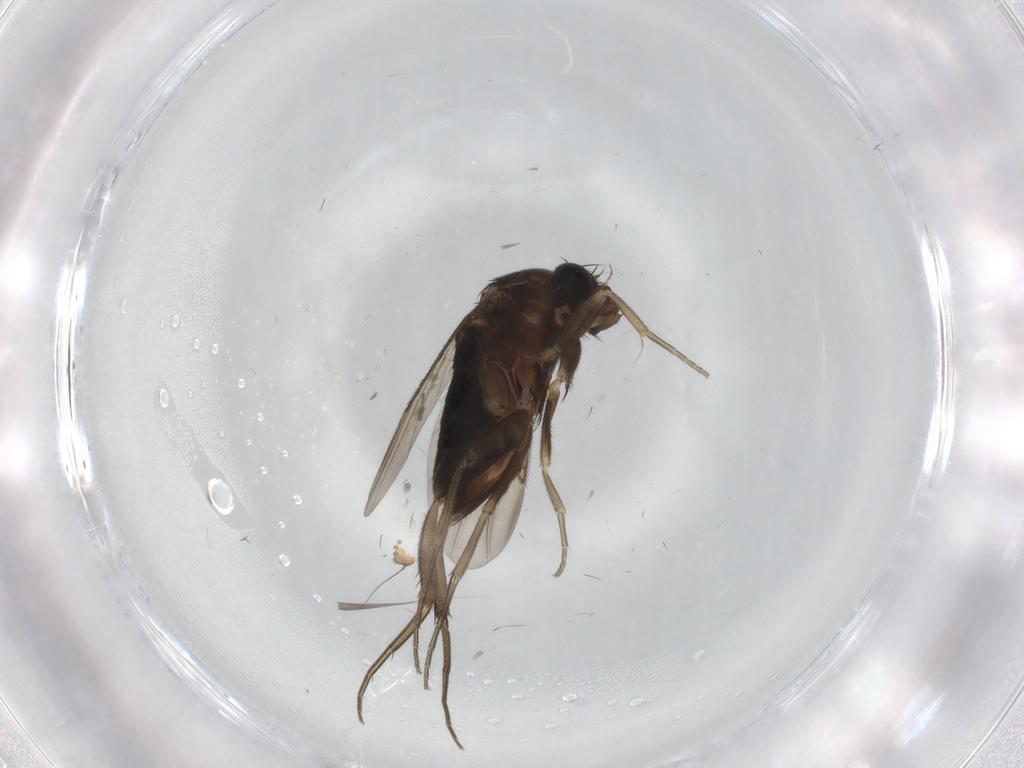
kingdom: Animalia
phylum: Arthropoda
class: Insecta
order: Diptera
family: Phoridae
